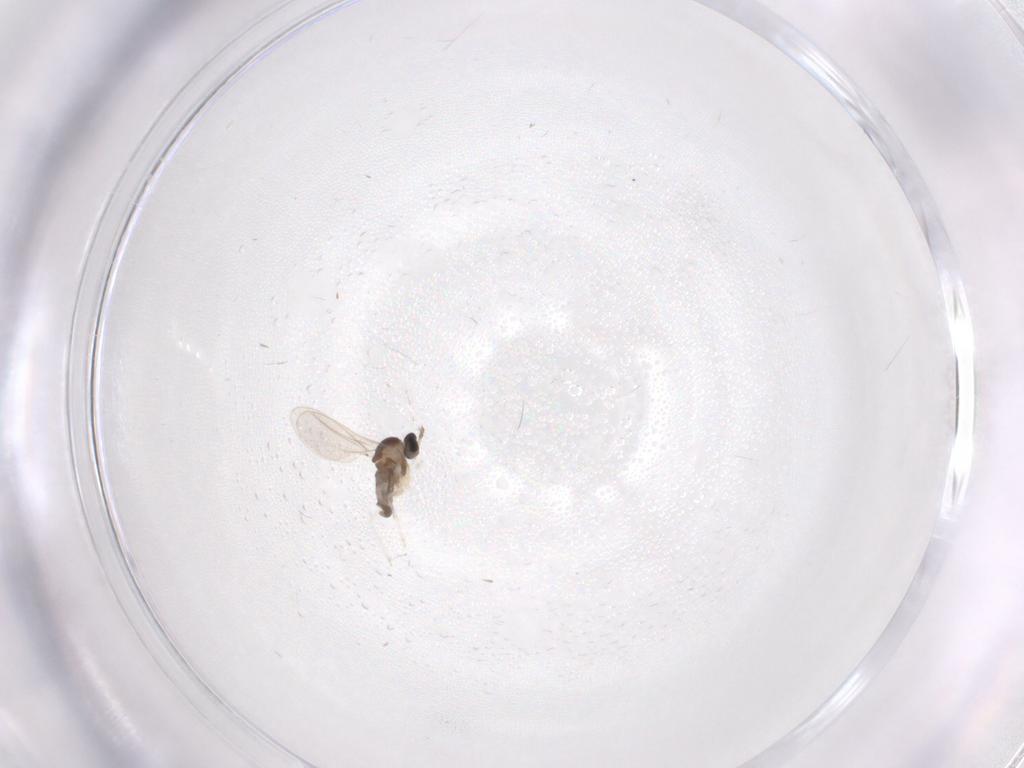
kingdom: Animalia
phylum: Arthropoda
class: Insecta
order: Diptera
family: Cecidomyiidae
